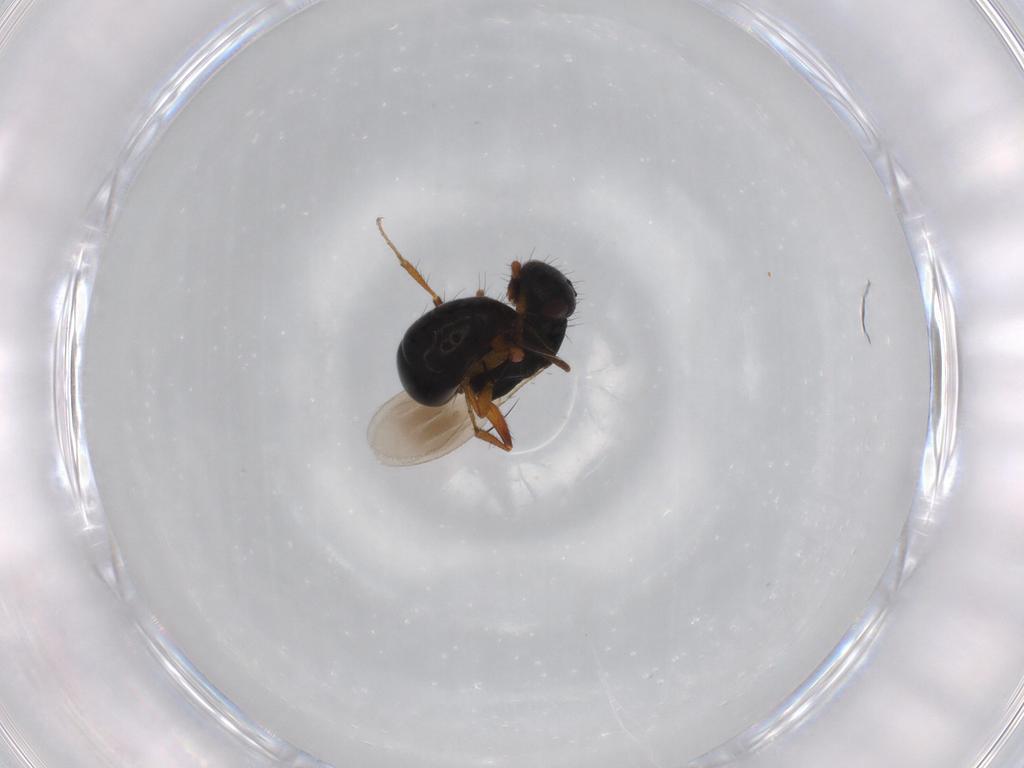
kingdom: Animalia
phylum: Arthropoda
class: Insecta
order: Hymenoptera
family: Bethylidae
